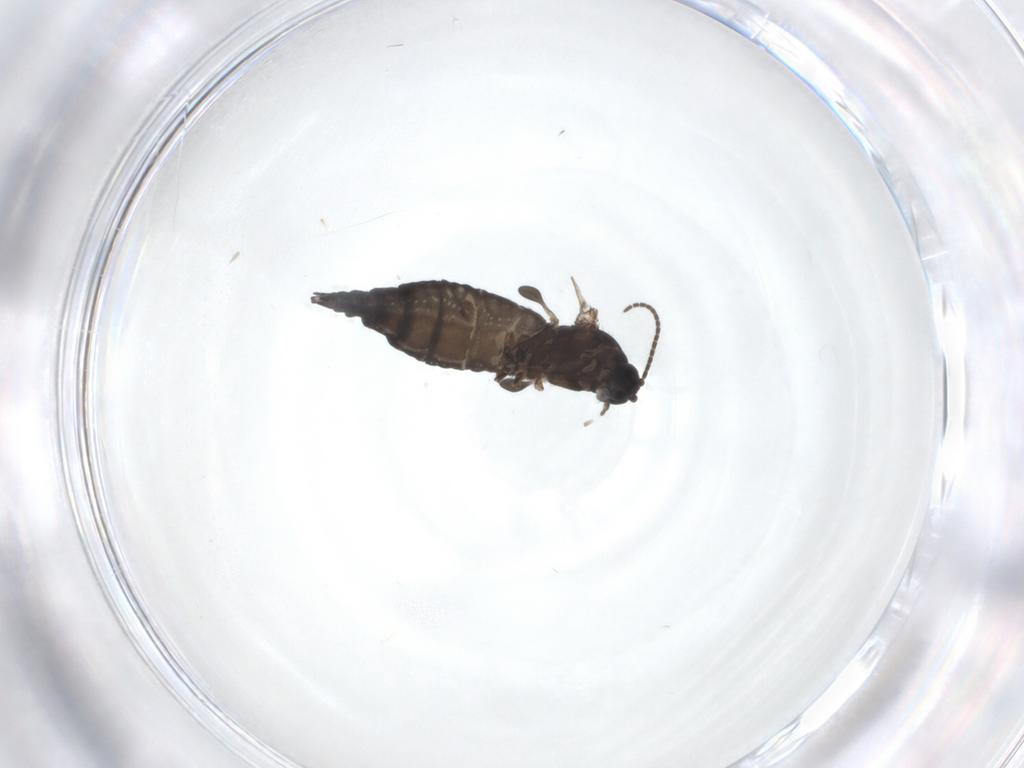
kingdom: Animalia
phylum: Arthropoda
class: Insecta
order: Diptera
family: Sciaridae
